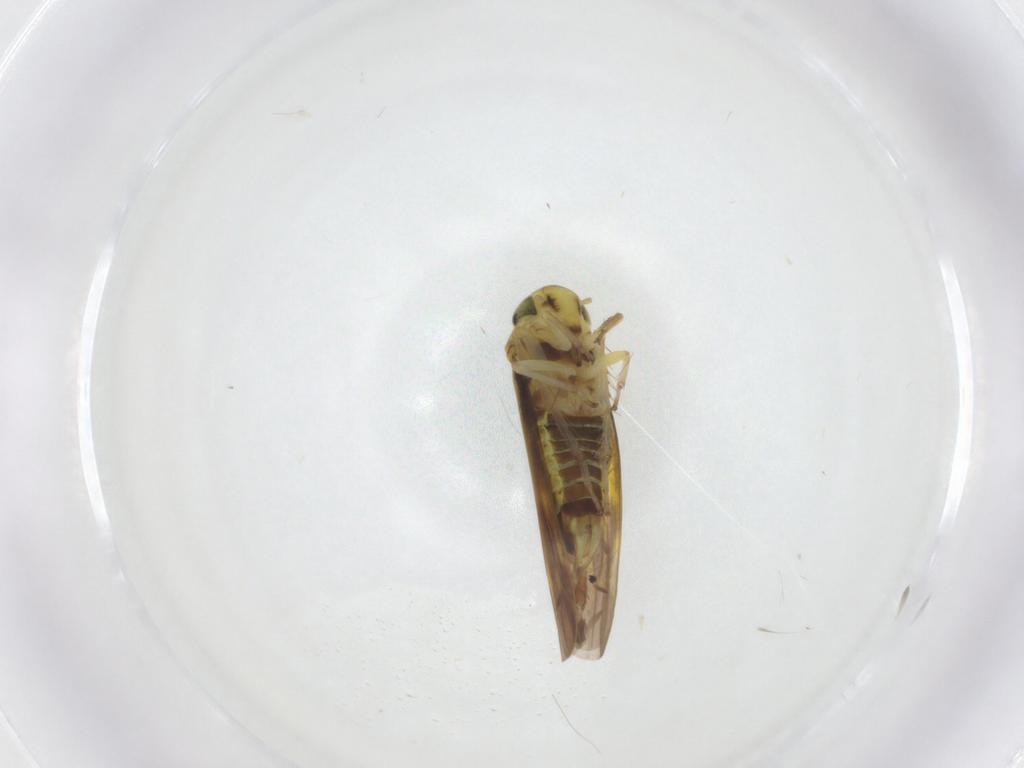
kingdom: Animalia
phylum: Arthropoda
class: Insecta
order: Hemiptera
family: Cicadellidae
